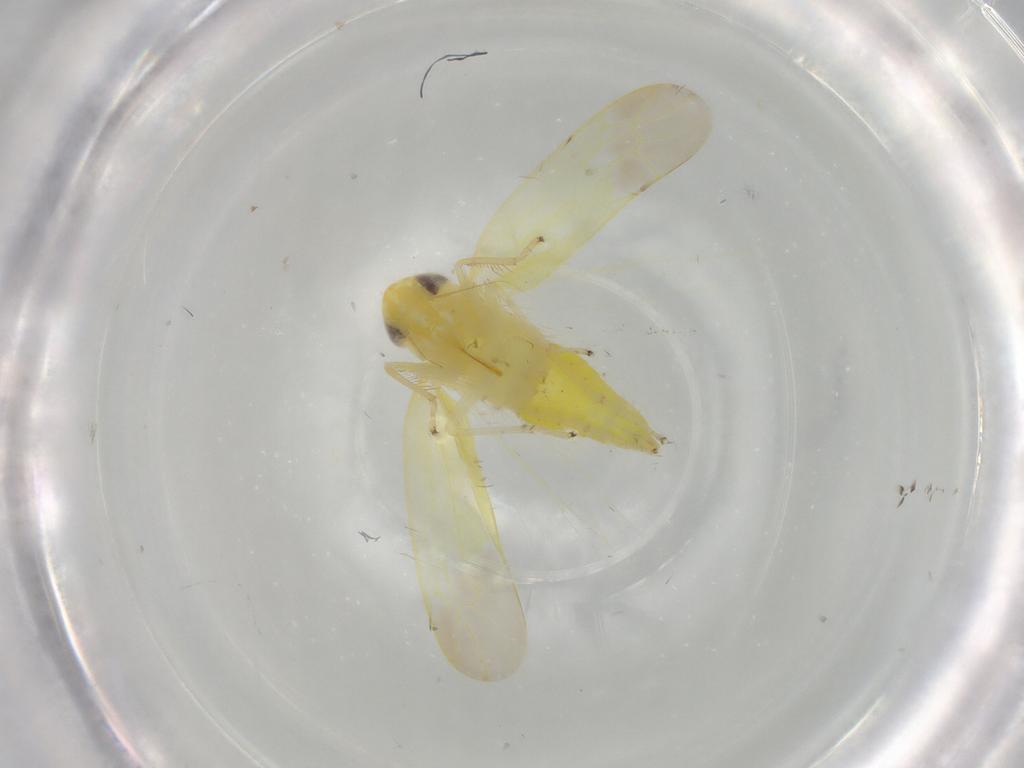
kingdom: Animalia
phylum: Arthropoda
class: Insecta
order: Hemiptera
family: Cicadellidae
